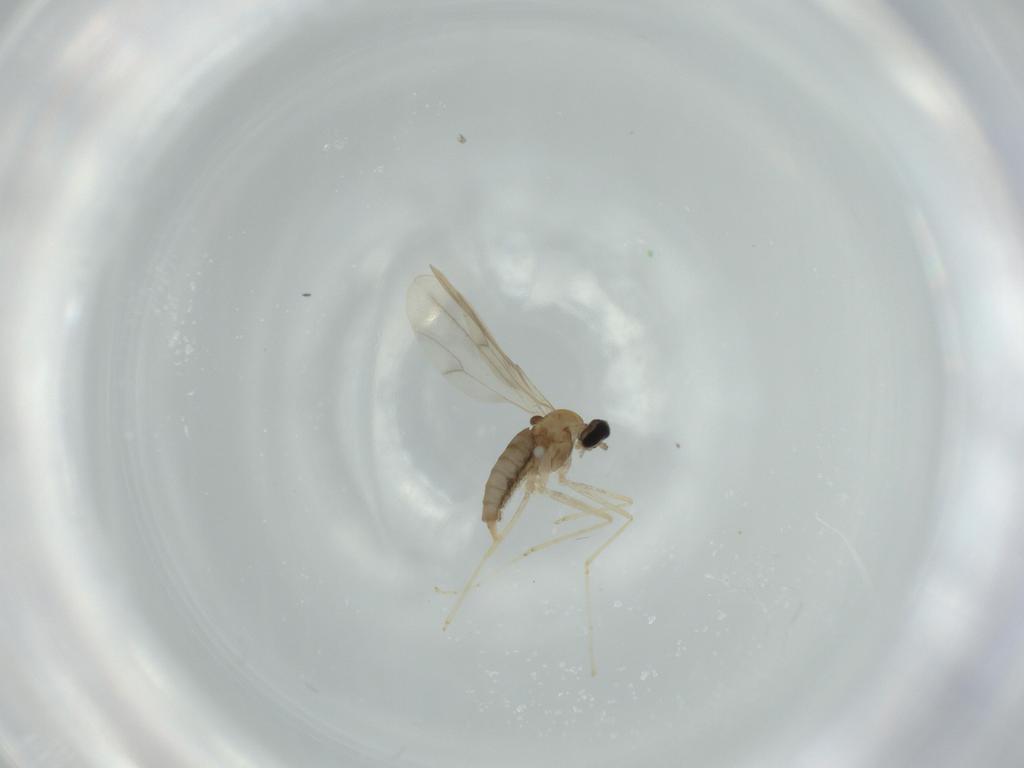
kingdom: Animalia
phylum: Arthropoda
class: Insecta
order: Diptera
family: Cecidomyiidae
